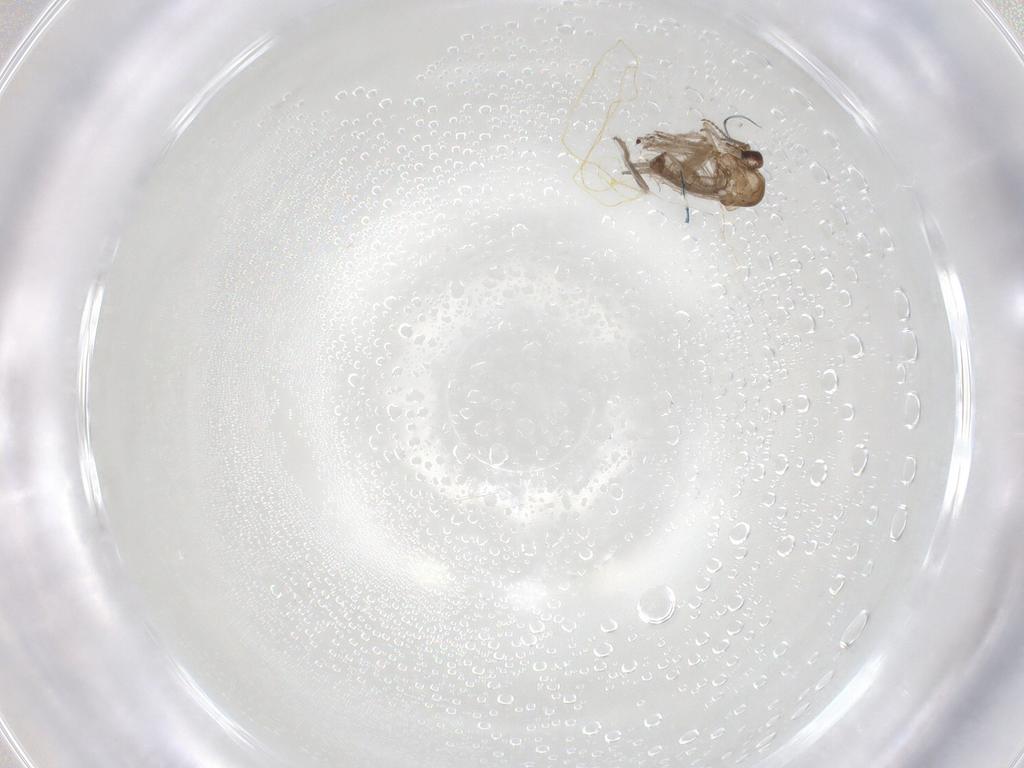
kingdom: Animalia
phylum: Arthropoda
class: Insecta
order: Diptera
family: Ceratopogonidae
